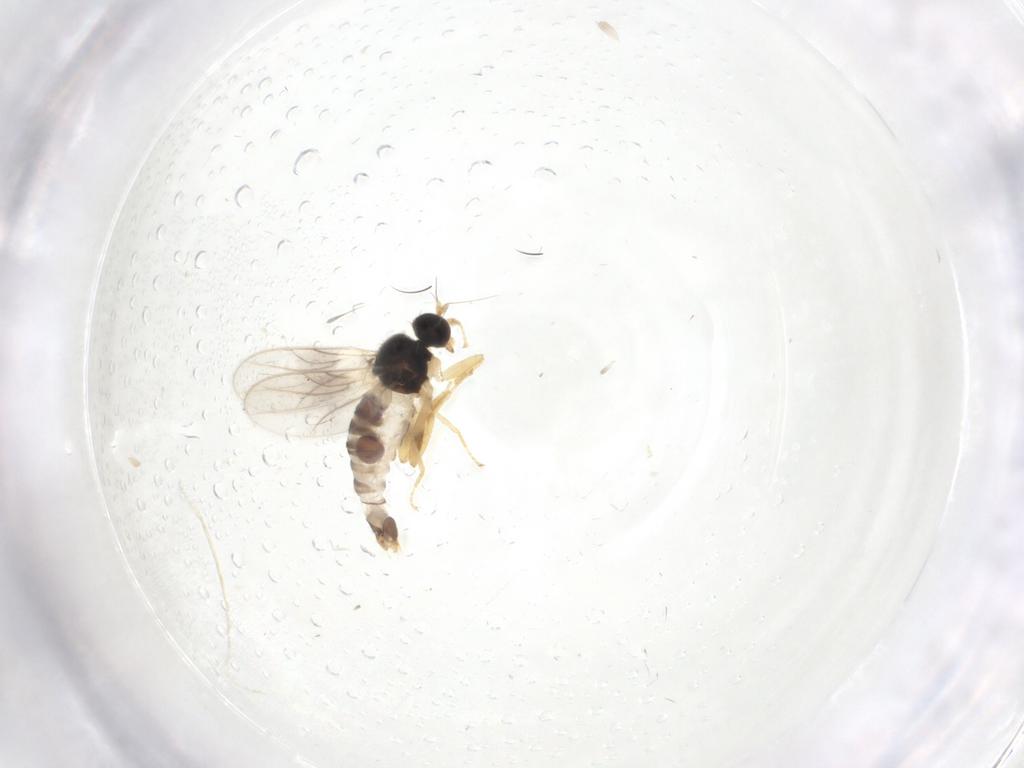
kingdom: Animalia
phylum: Arthropoda
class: Insecta
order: Diptera
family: Hybotidae
